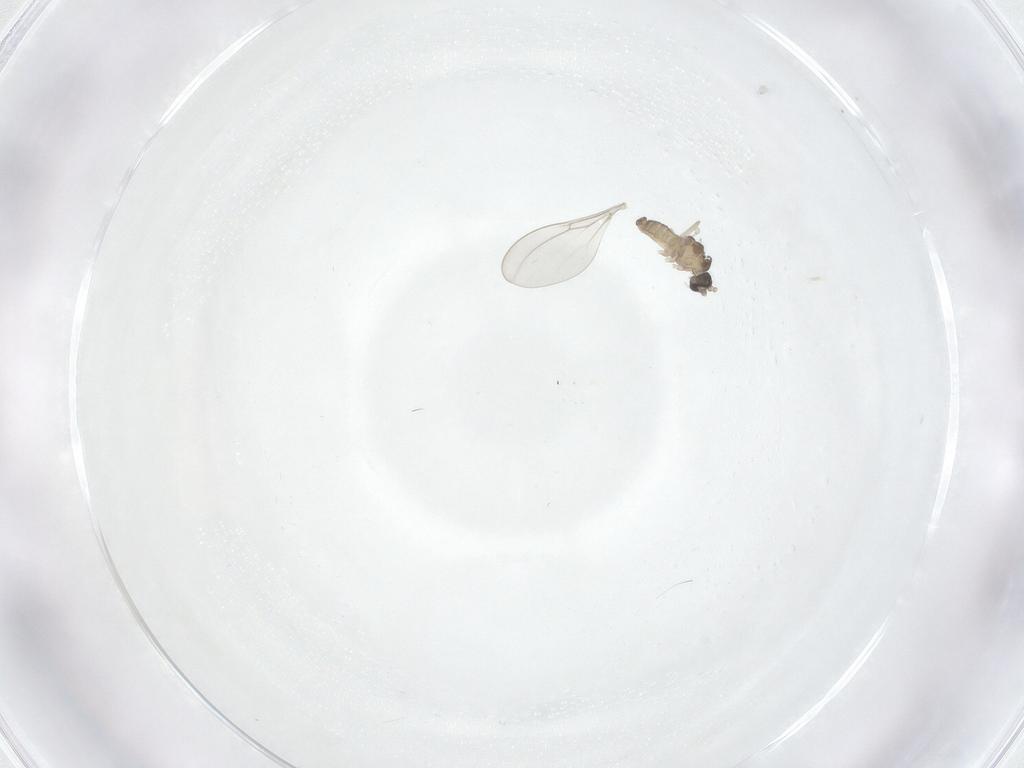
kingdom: Animalia
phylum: Arthropoda
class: Insecta
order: Diptera
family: Cecidomyiidae
